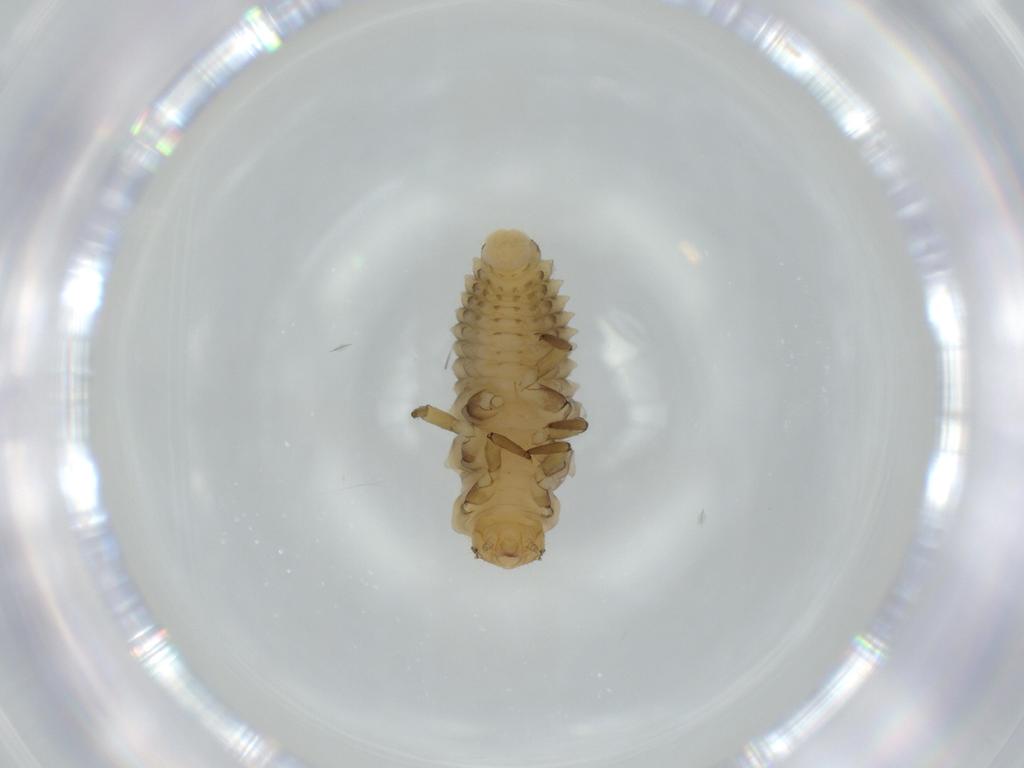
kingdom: Animalia
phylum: Arthropoda
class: Insecta
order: Coleoptera
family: Coccinellidae
